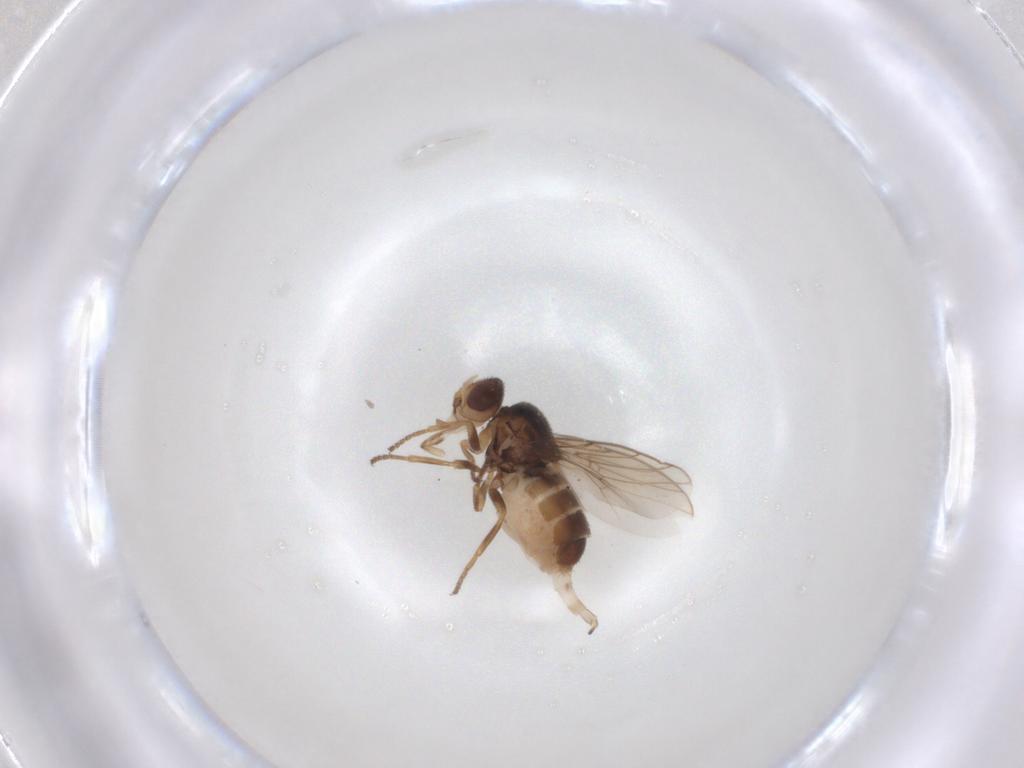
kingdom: Animalia
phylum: Arthropoda
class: Insecta
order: Diptera
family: Chloropidae
